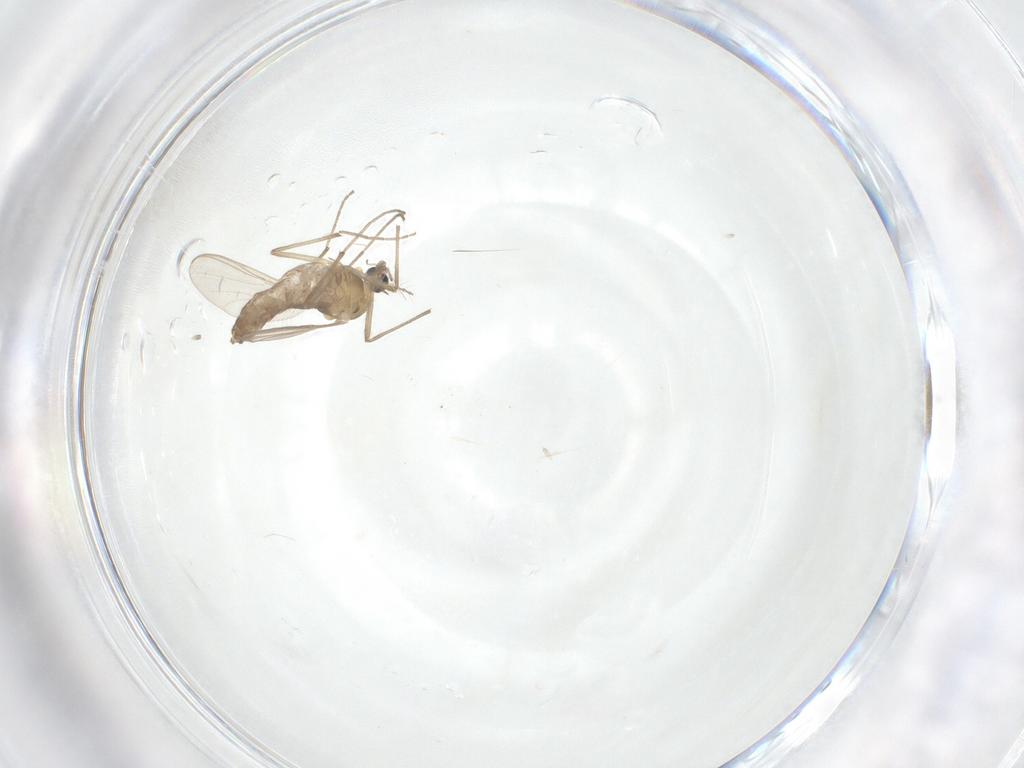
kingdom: Animalia
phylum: Arthropoda
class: Insecta
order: Diptera
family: Chironomidae
